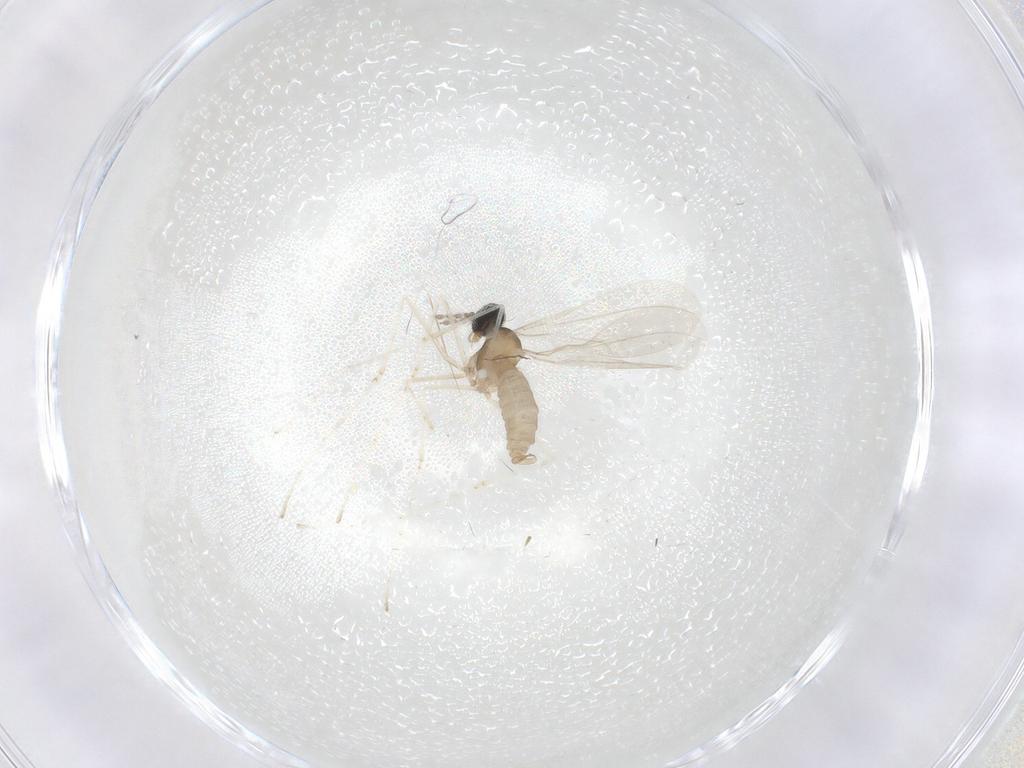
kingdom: Animalia
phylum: Arthropoda
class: Insecta
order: Diptera
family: Cecidomyiidae
